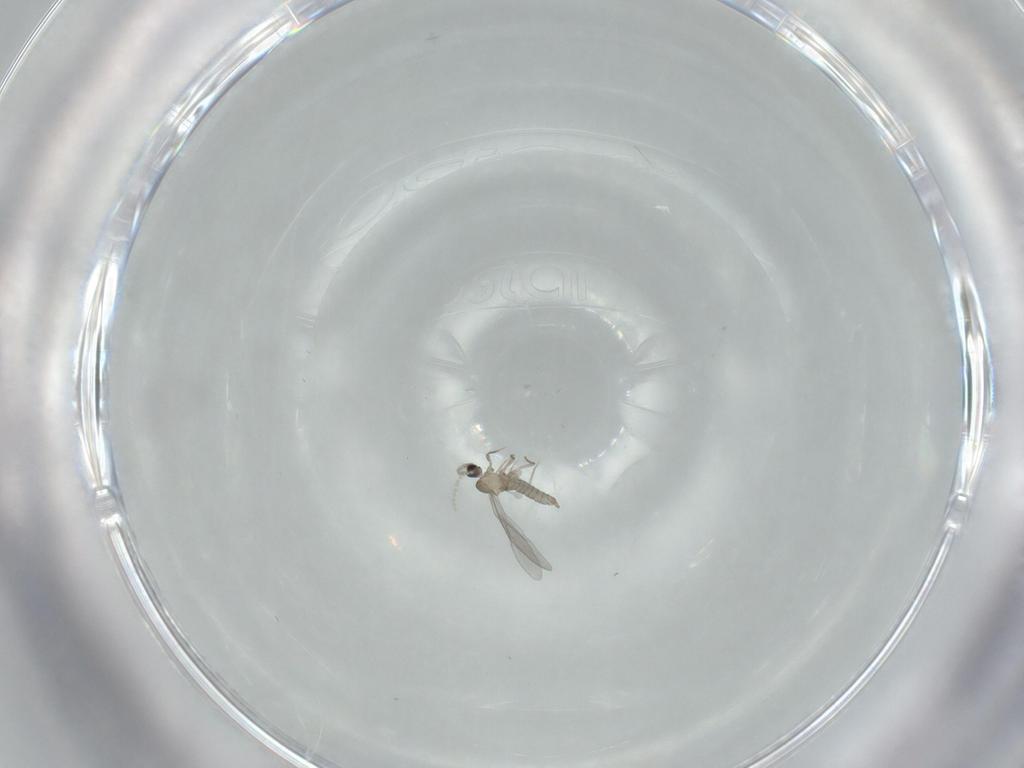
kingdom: Animalia
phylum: Arthropoda
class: Insecta
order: Diptera
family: Cecidomyiidae
